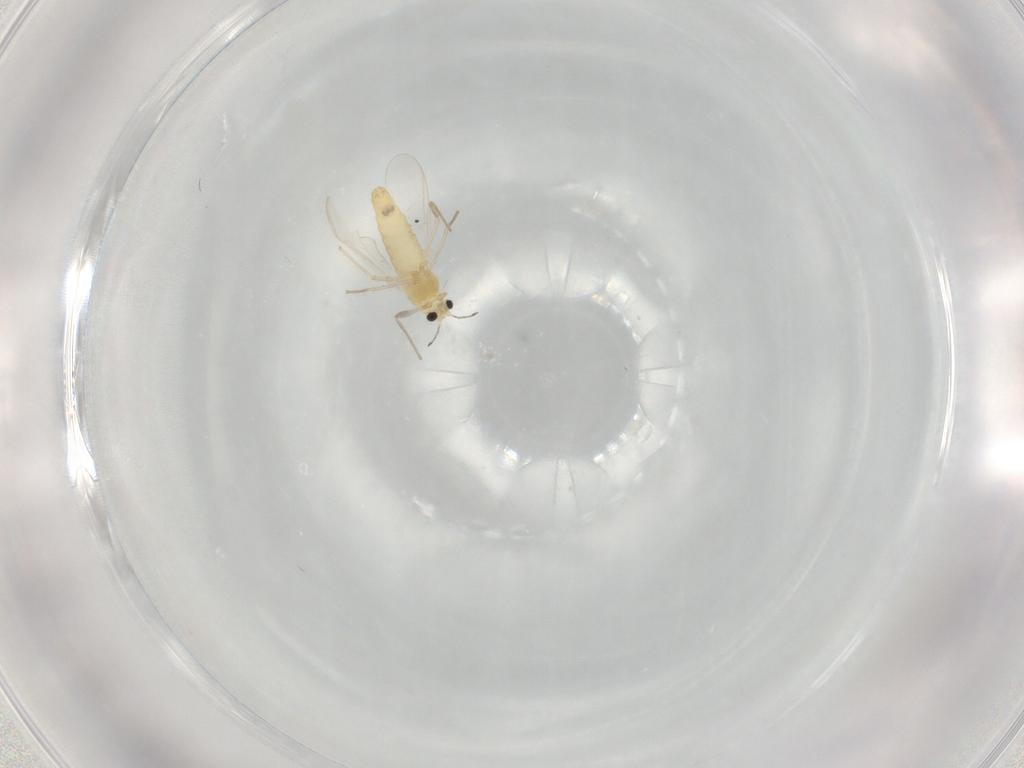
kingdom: Animalia
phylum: Arthropoda
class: Insecta
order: Diptera
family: Chironomidae
